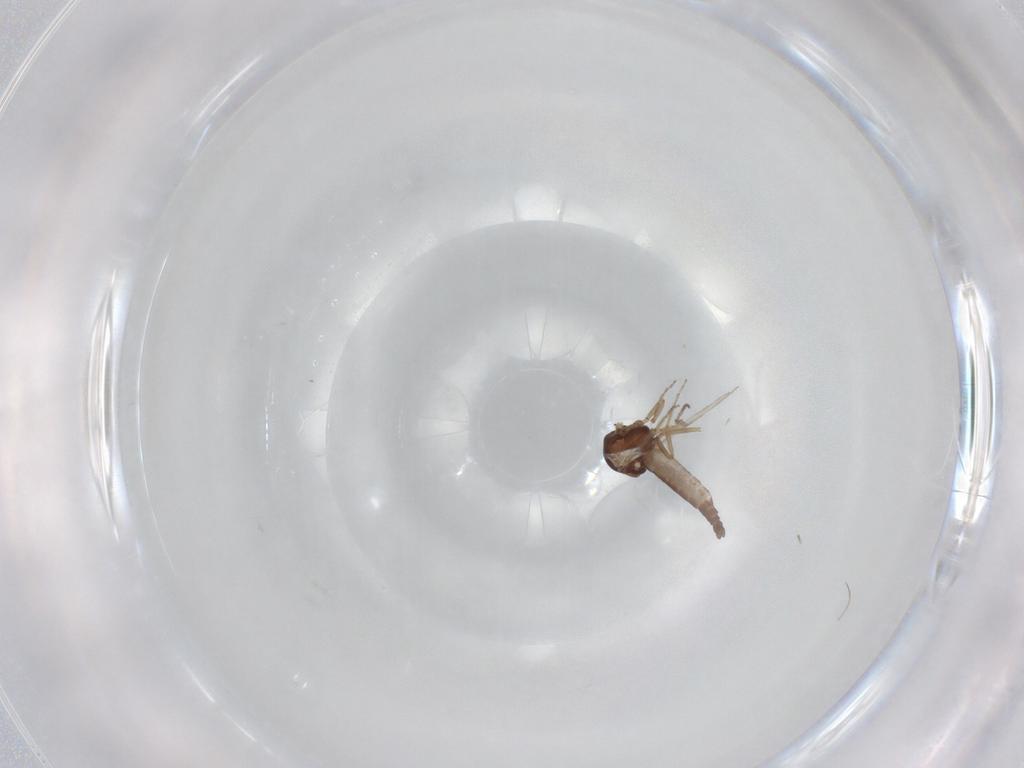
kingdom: Animalia
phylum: Arthropoda
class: Insecta
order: Diptera
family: Ceratopogonidae
